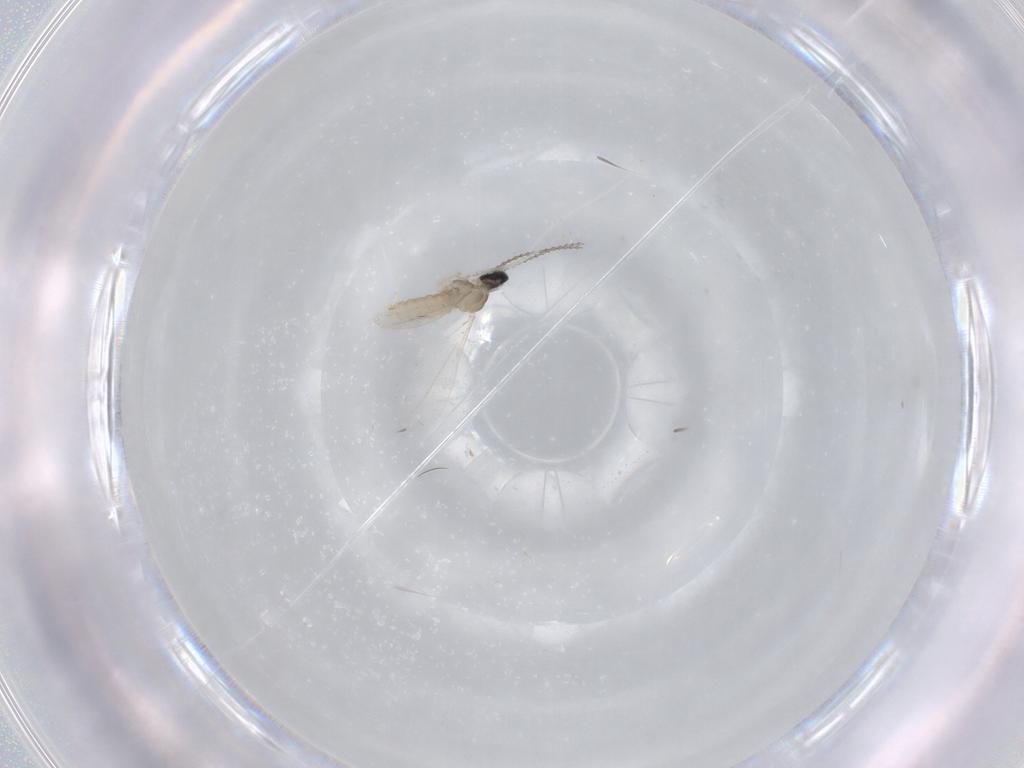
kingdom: Animalia
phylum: Arthropoda
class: Insecta
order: Diptera
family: Cecidomyiidae
